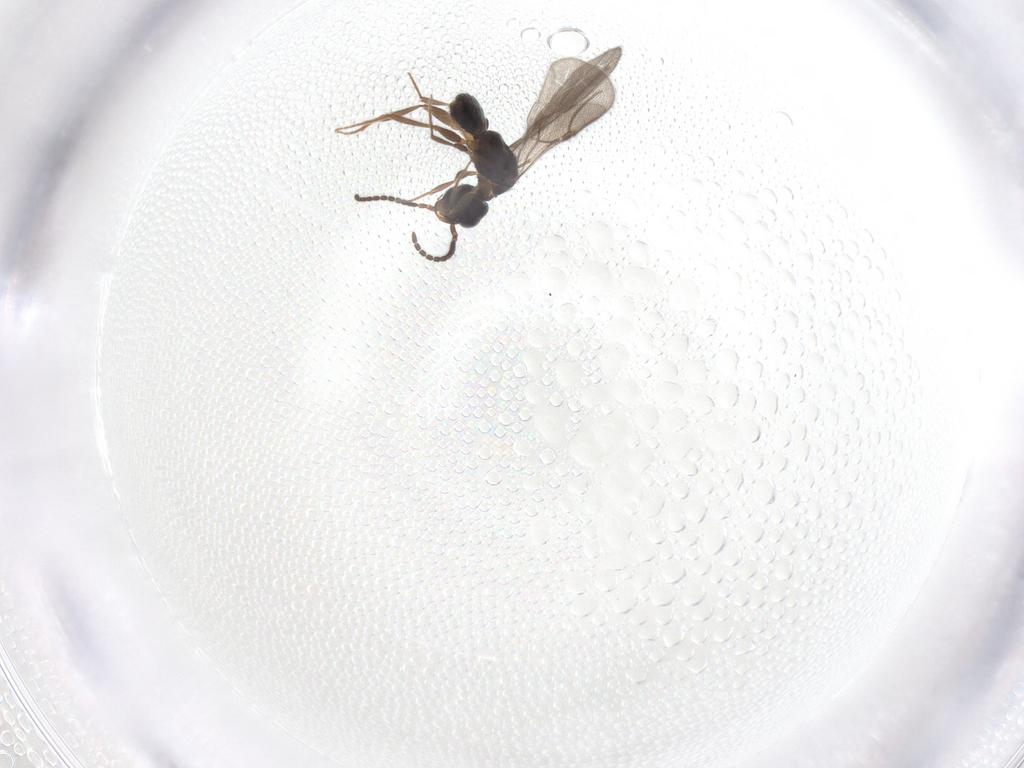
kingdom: Animalia
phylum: Arthropoda
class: Insecta
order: Hymenoptera
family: Bethylidae
